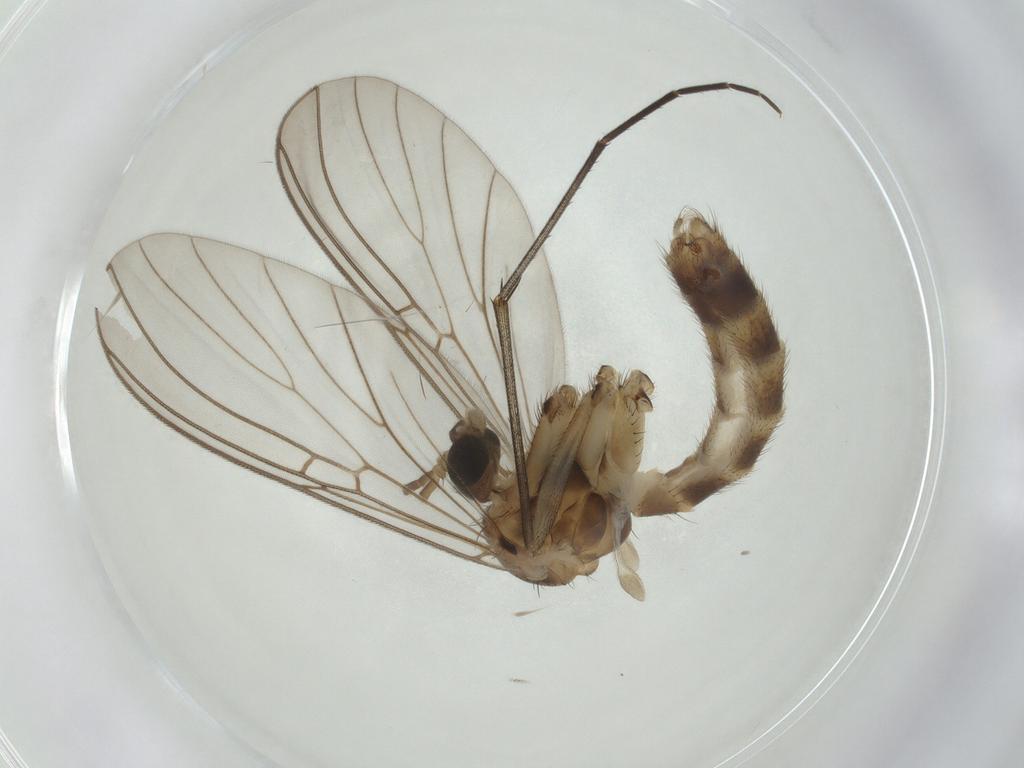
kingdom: Animalia
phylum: Arthropoda
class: Insecta
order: Diptera
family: Mycetophilidae
